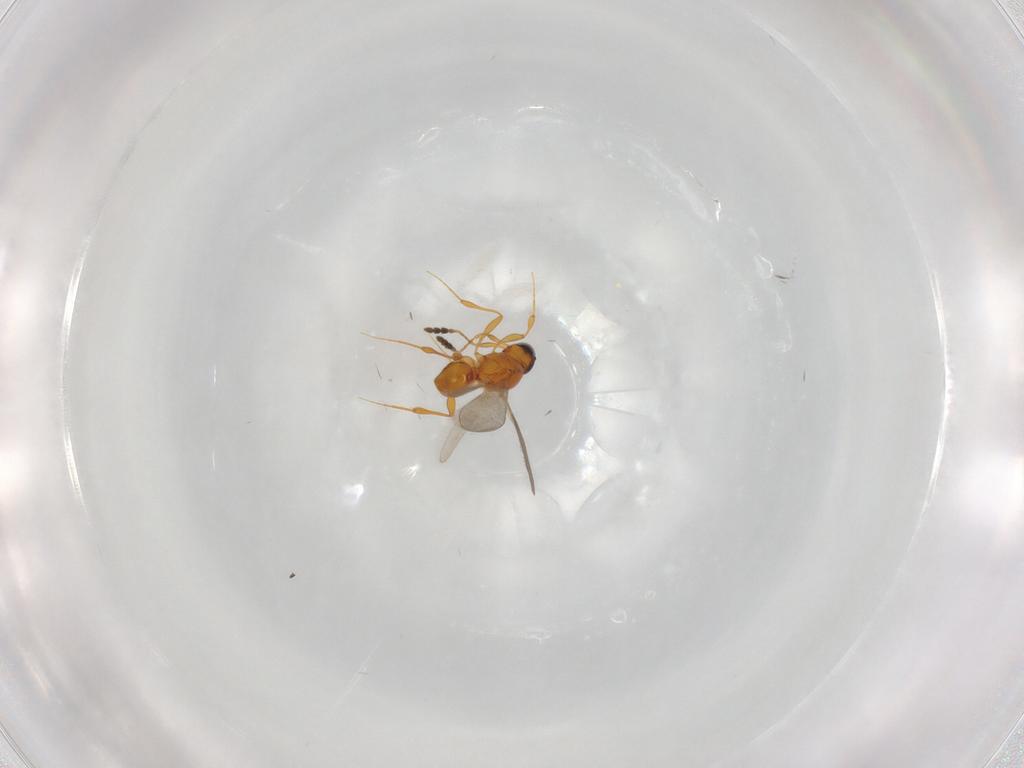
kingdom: Animalia
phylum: Arthropoda
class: Insecta
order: Hymenoptera
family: Platygastridae
